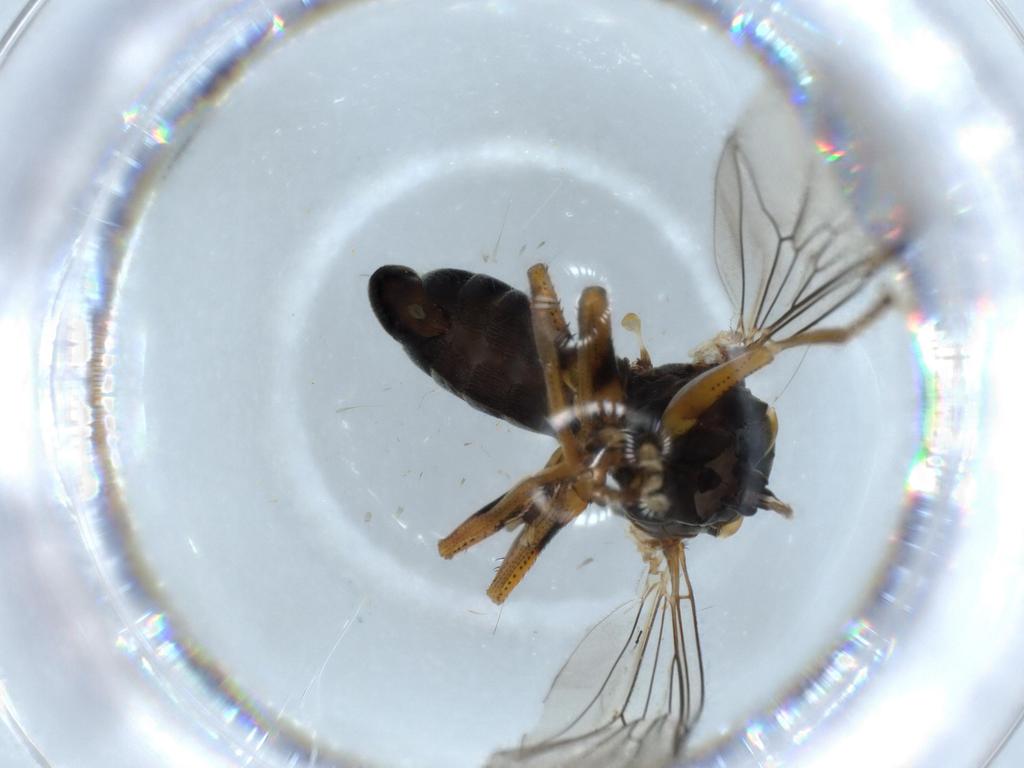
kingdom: Animalia
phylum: Arthropoda
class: Insecta
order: Diptera
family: Pipunculidae
